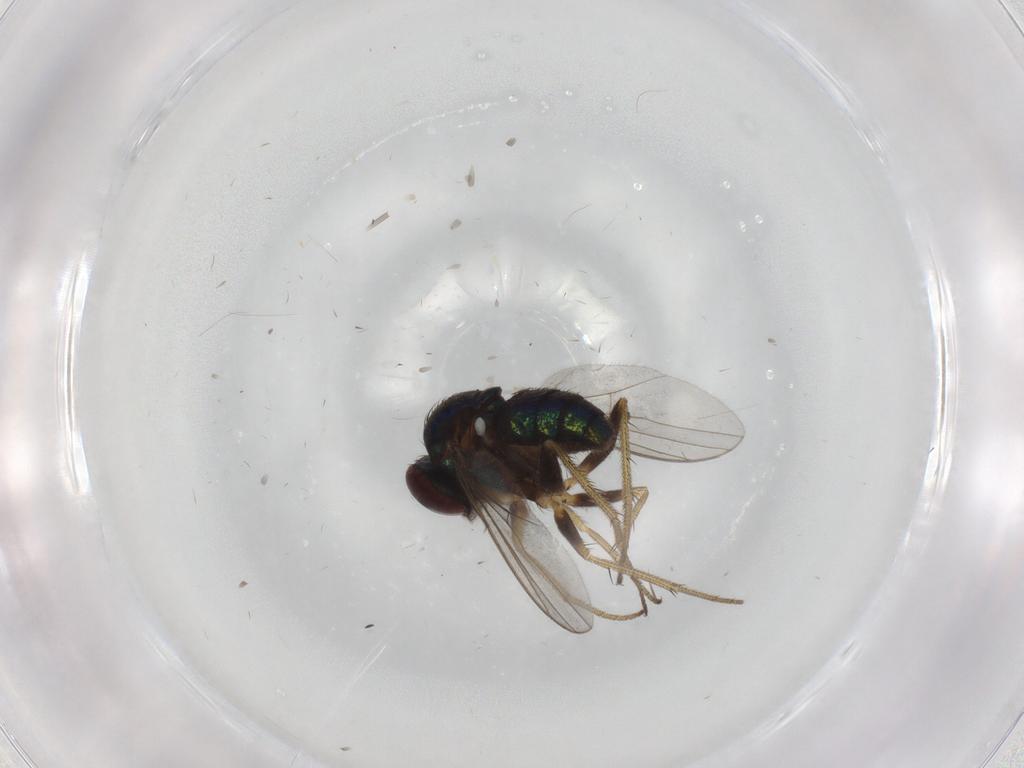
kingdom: Animalia
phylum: Arthropoda
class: Insecta
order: Diptera
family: Dolichopodidae
